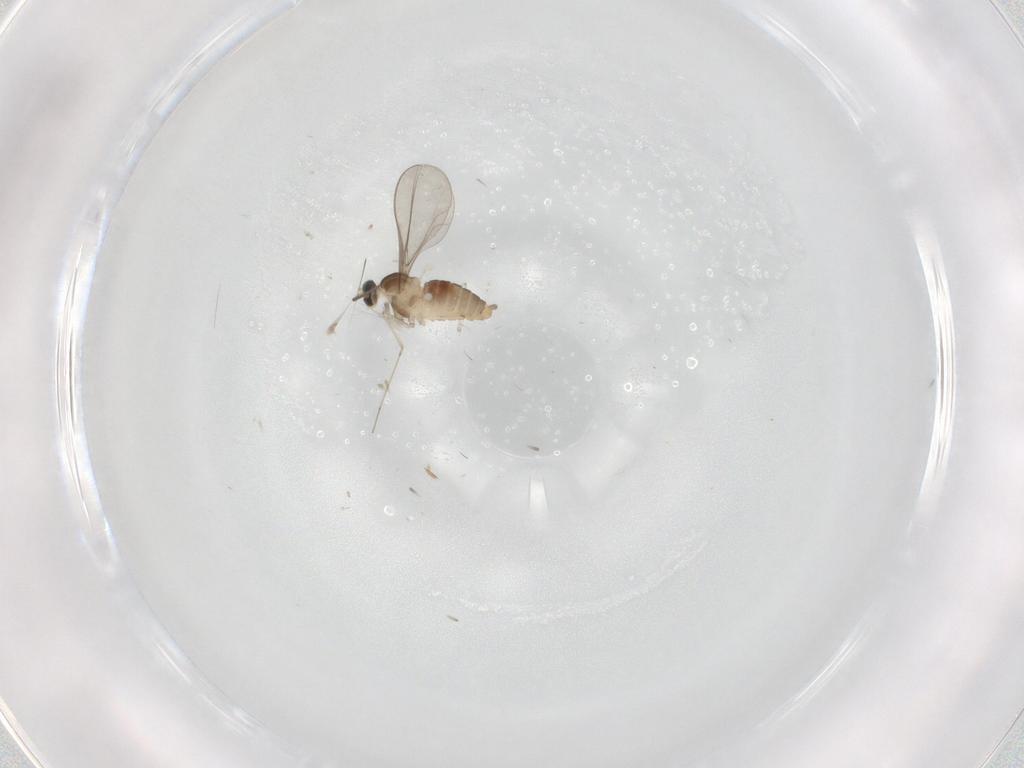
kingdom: Animalia
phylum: Arthropoda
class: Insecta
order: Diptera
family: Cecidomyiidae
